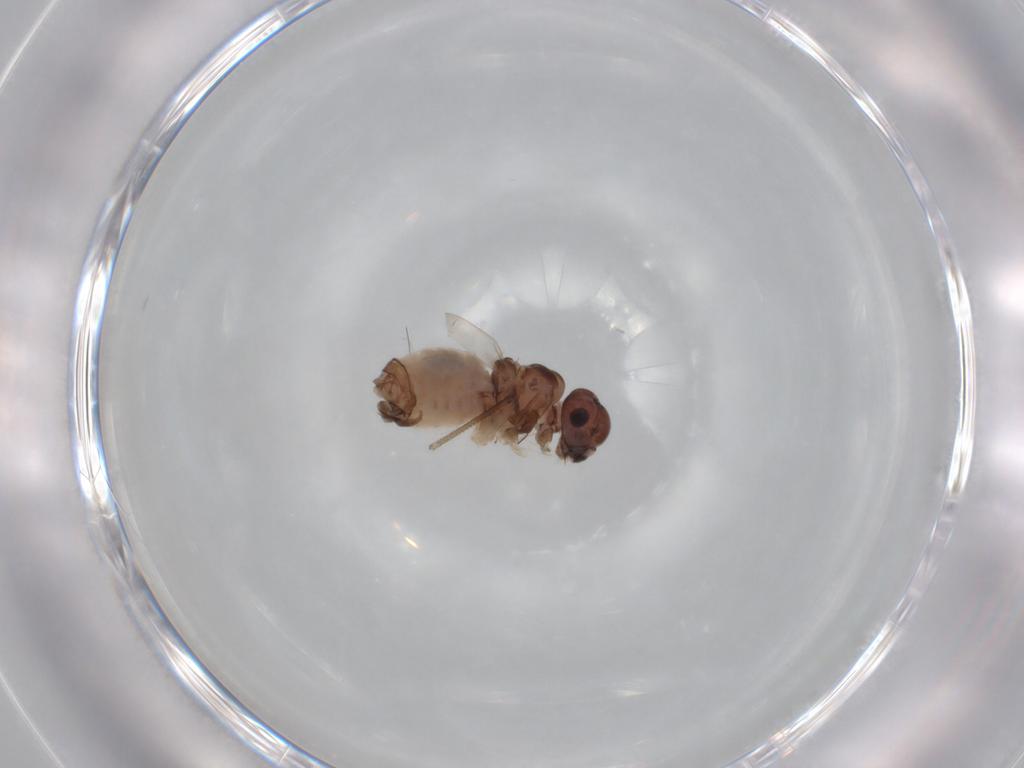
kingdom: Animalia
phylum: Arthropoda
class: Insecta
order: Psocodea
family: Peripsocidae
